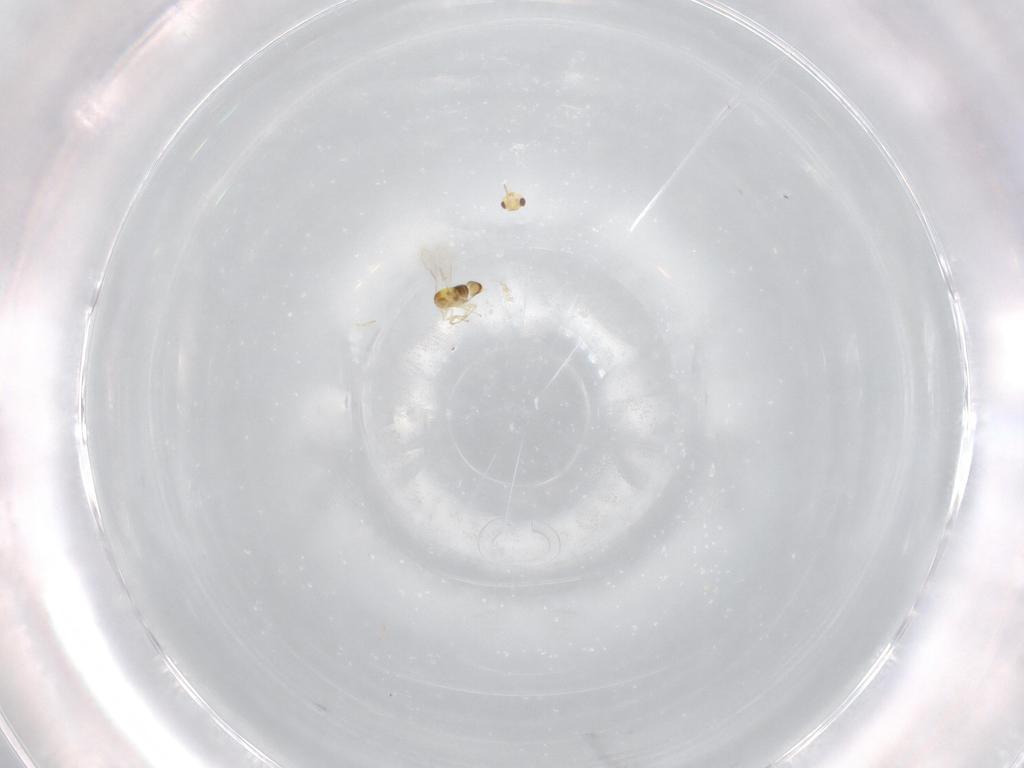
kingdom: Animalia
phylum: Arthropoda
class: Insecta
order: Hymenoptera
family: Aphelinidae
